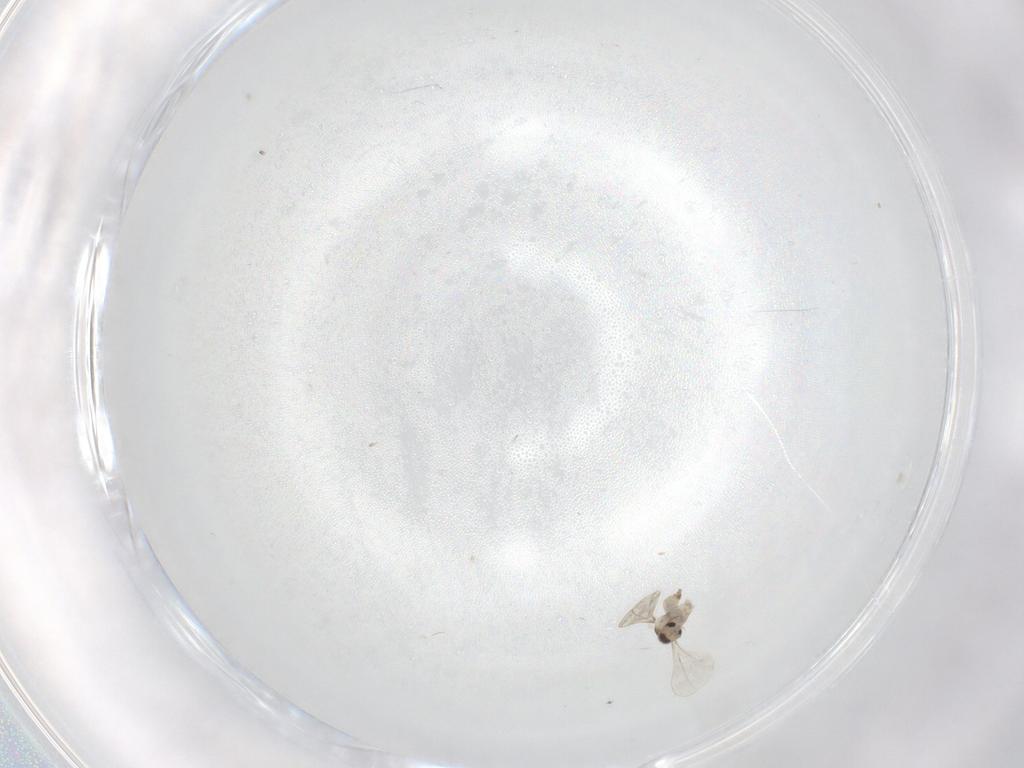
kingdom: Animalia
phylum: Arthropoda
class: Insecta
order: Diptera
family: Cecidomyiidae
